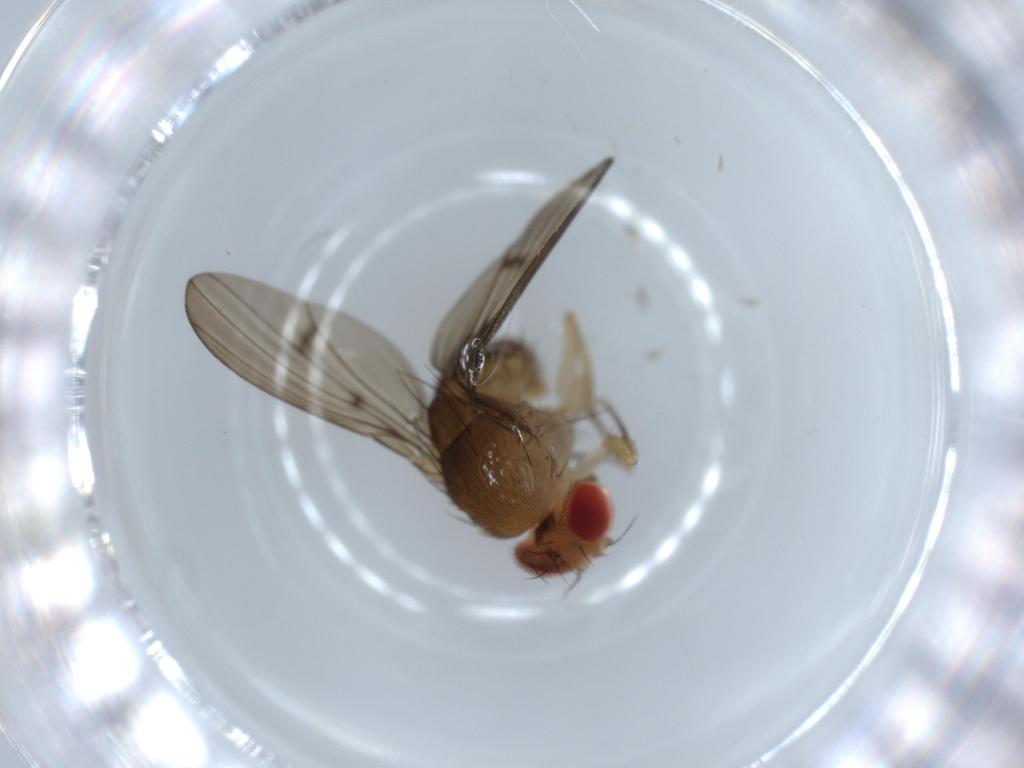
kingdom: Animalia
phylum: Arthropoda
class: Insecta
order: Diptera
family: Drosophilidae
